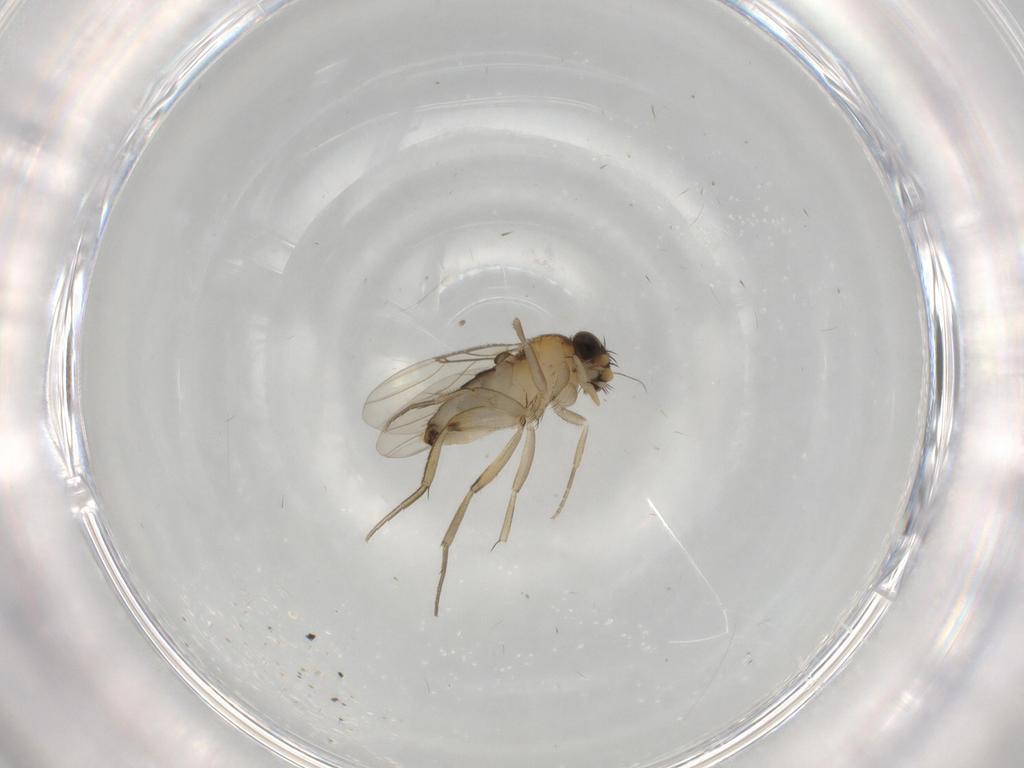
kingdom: Animalia
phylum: Arthropoda
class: Insecta
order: Diptera
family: Phoridae
